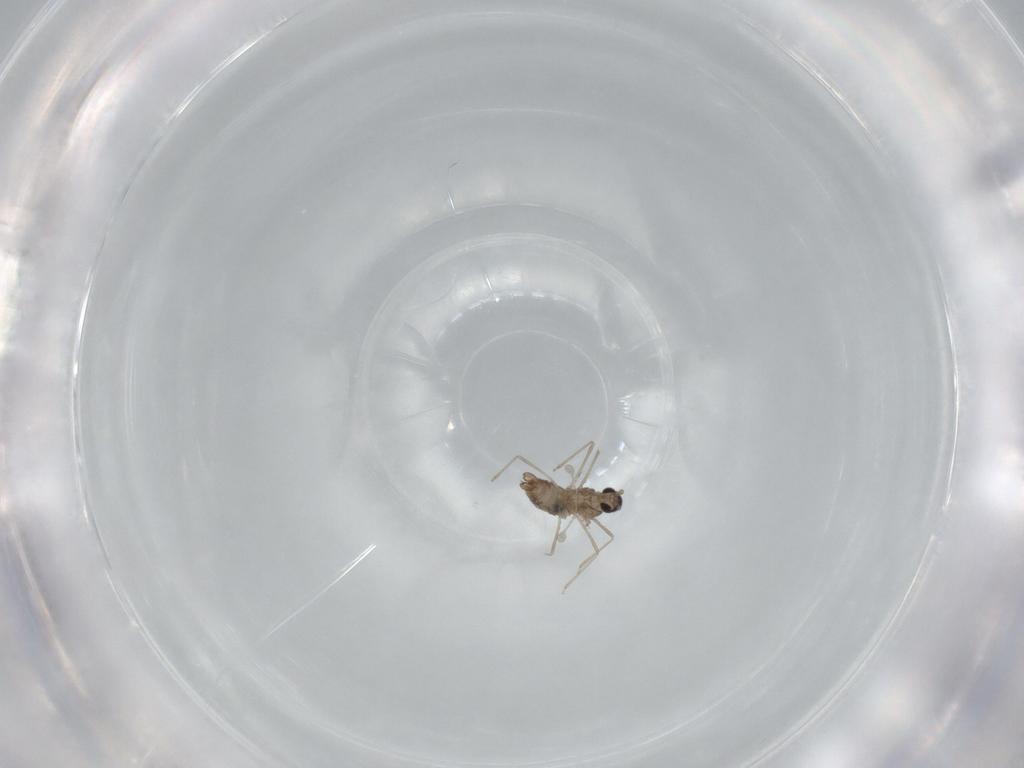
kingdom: Animalia
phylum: Arthropoda
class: Insecta
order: Diptera
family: Cecidomyiidae
